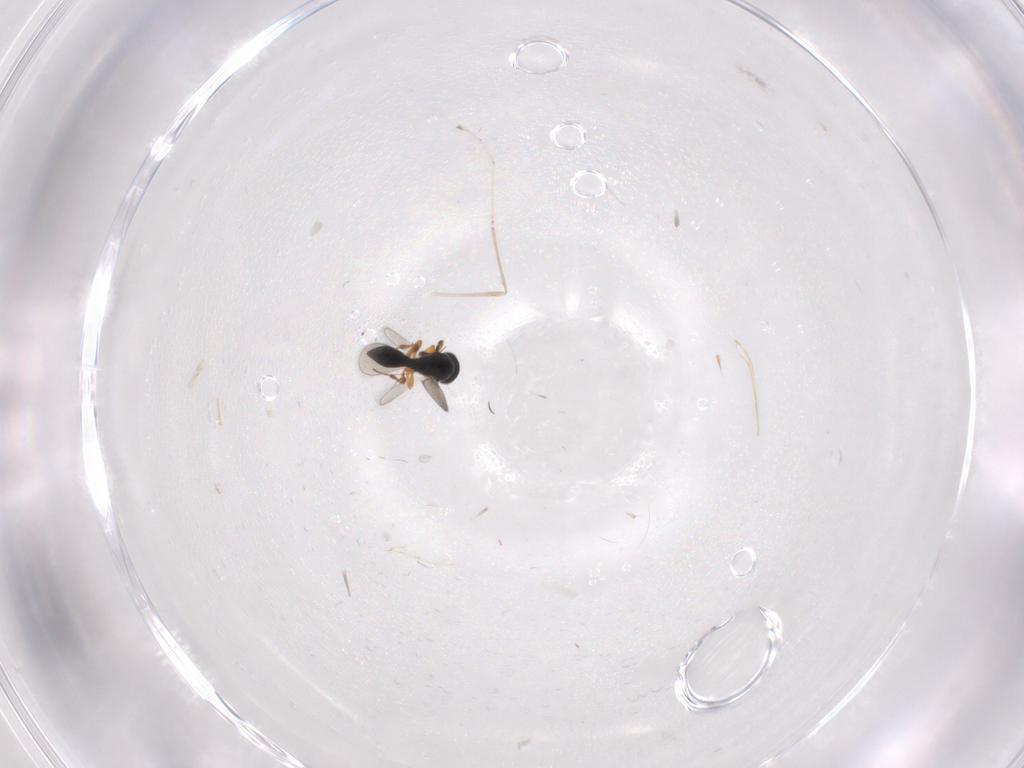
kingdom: Animalia
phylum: Arthropoda
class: Insecta
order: Hymenoptera
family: Platygastridae
